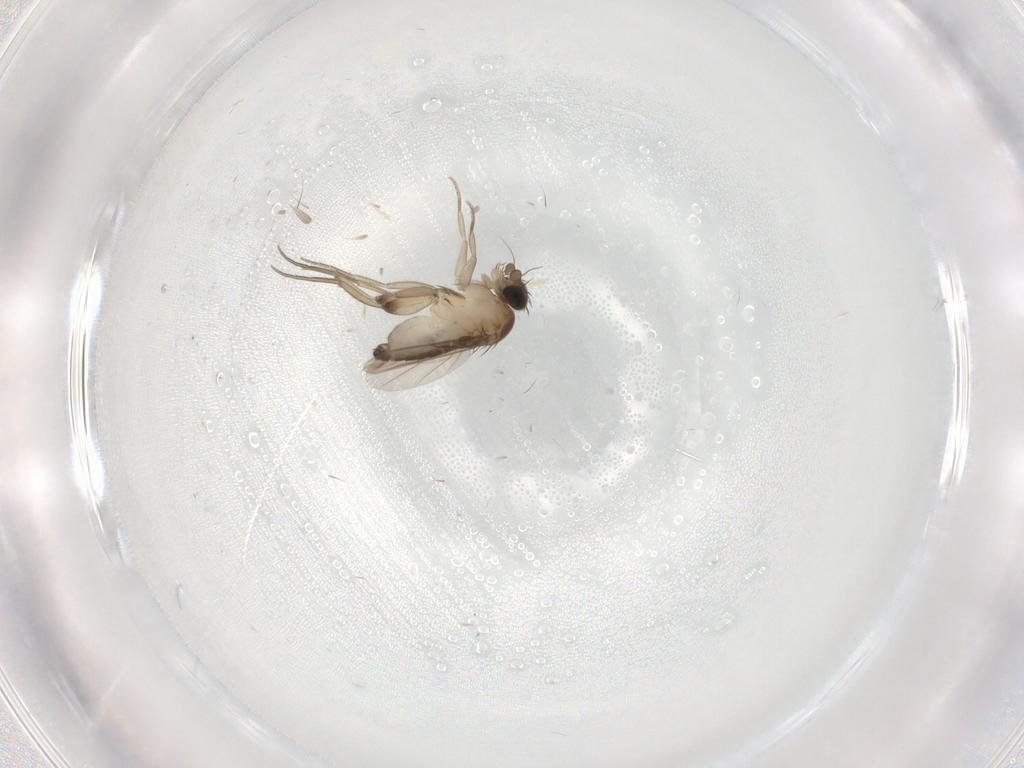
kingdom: Animalia
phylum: Arthropoda
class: Insecta
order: Diptera
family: Phoridae
